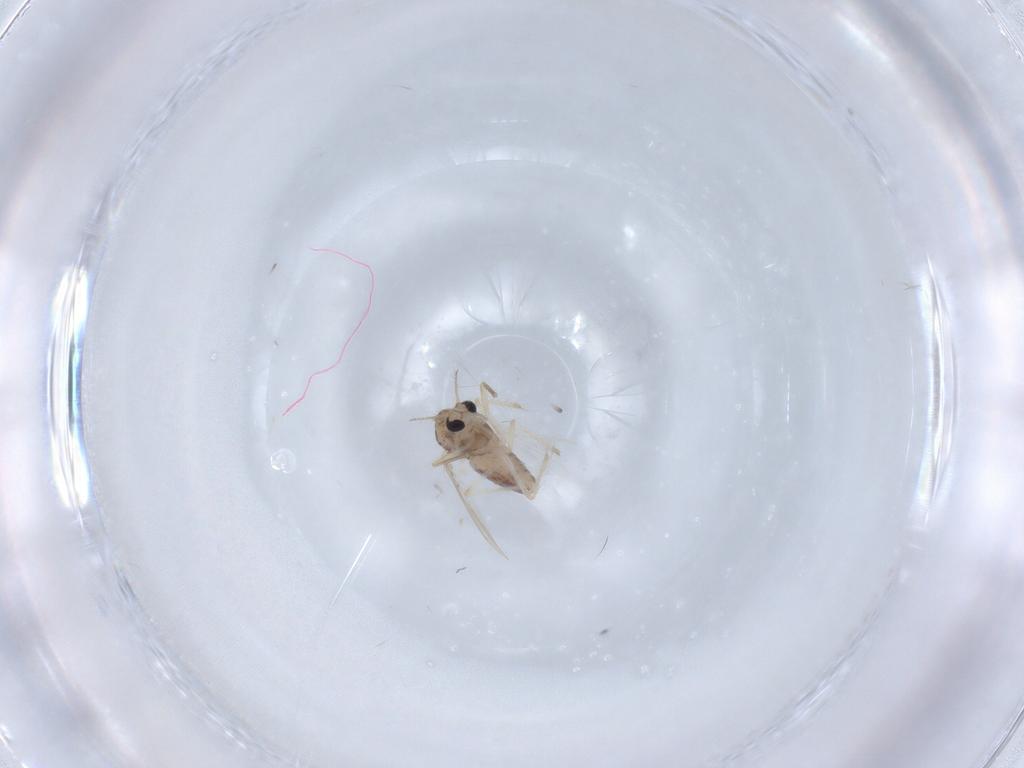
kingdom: Animalia
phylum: Arthropoda
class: Insecta
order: Diptera
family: Chironomidae
